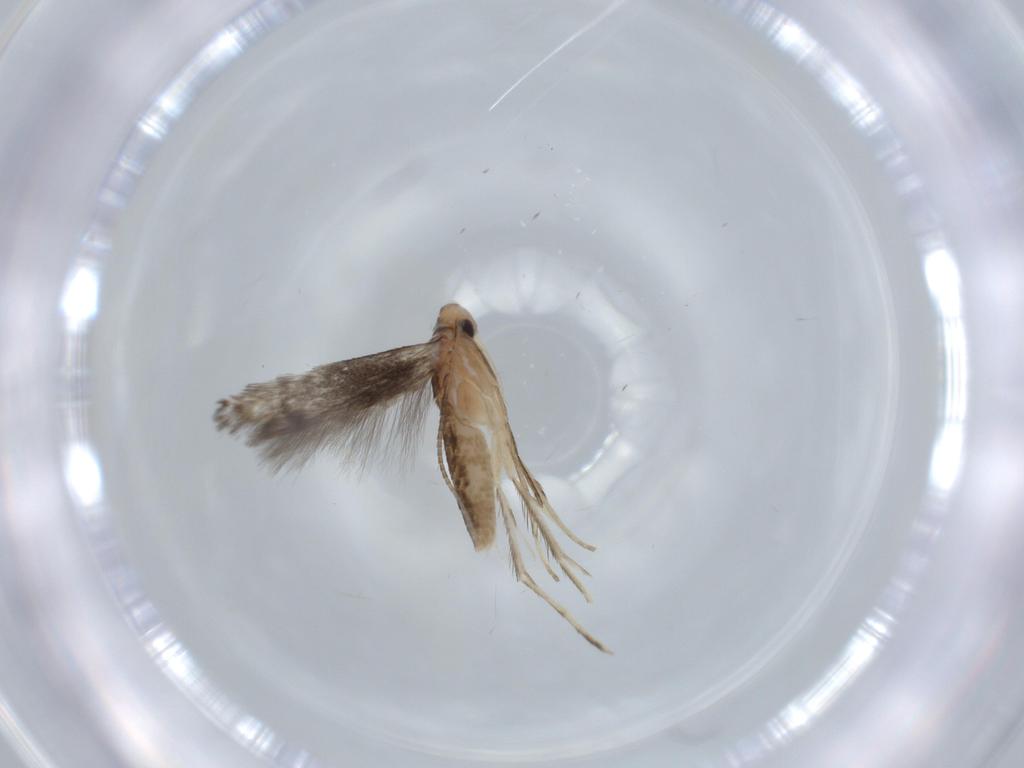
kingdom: Animalia
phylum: Arthropoda
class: Insecta
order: Lepidoptera
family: Gracillariidae
